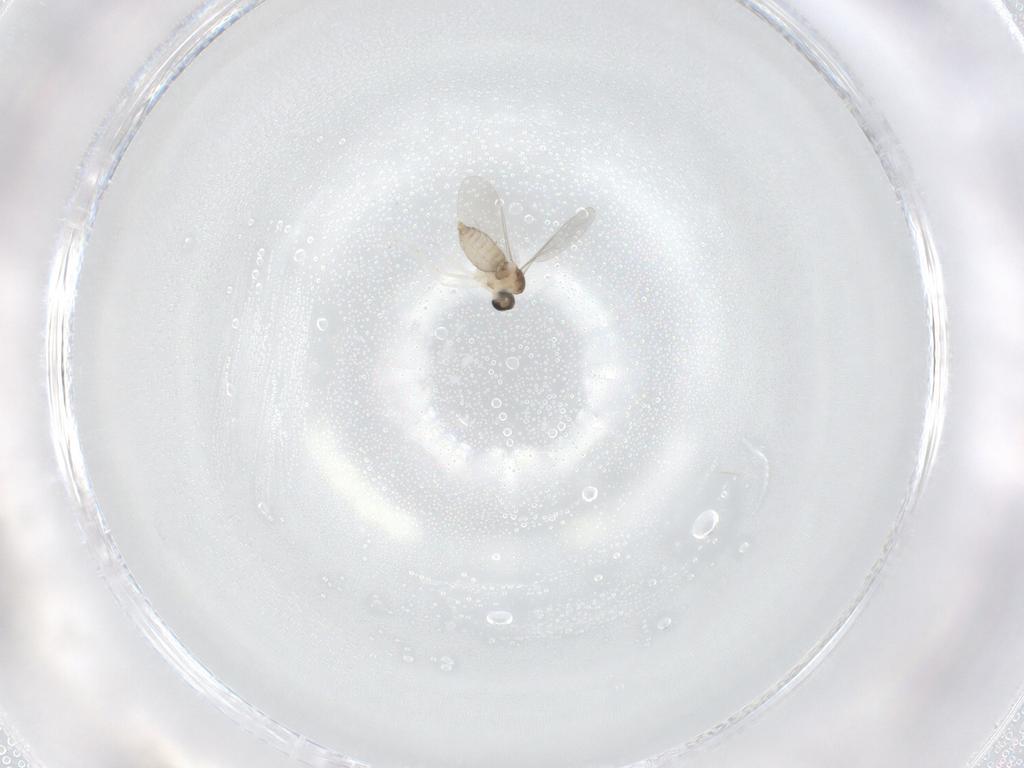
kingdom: Animalia
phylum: Arthropoda
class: Insecta
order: Diptera
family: Cecidomyiidae
